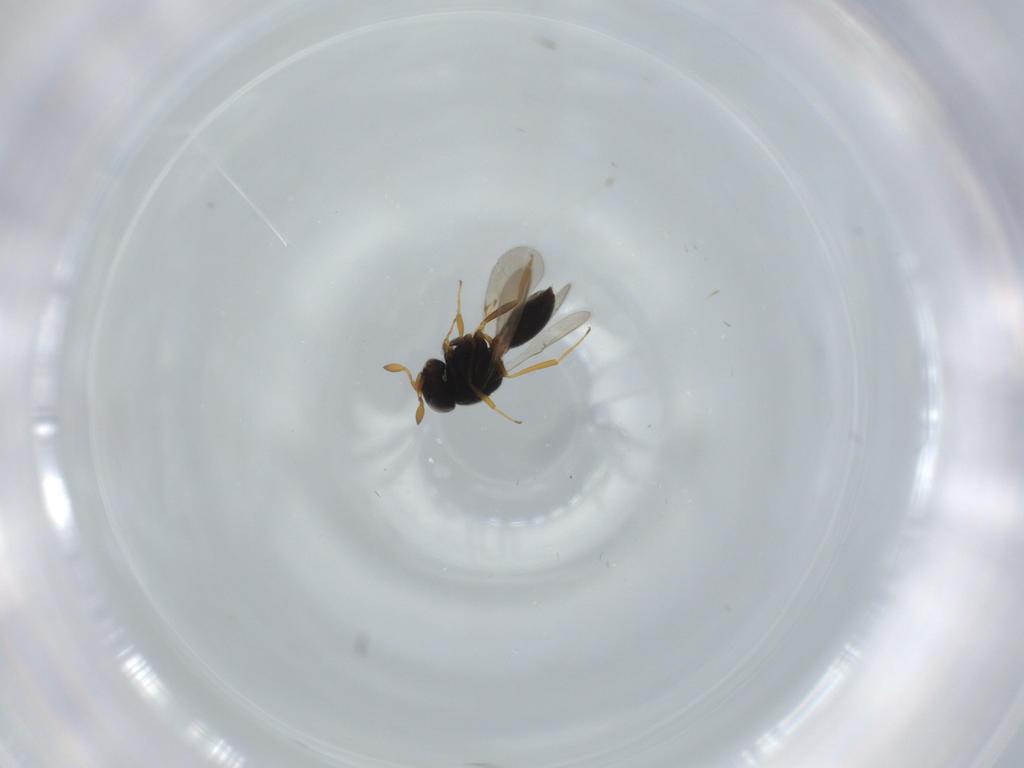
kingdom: Animalia
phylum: Arthropoda
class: Insecta
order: Hymenoptera
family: Scelionidae
